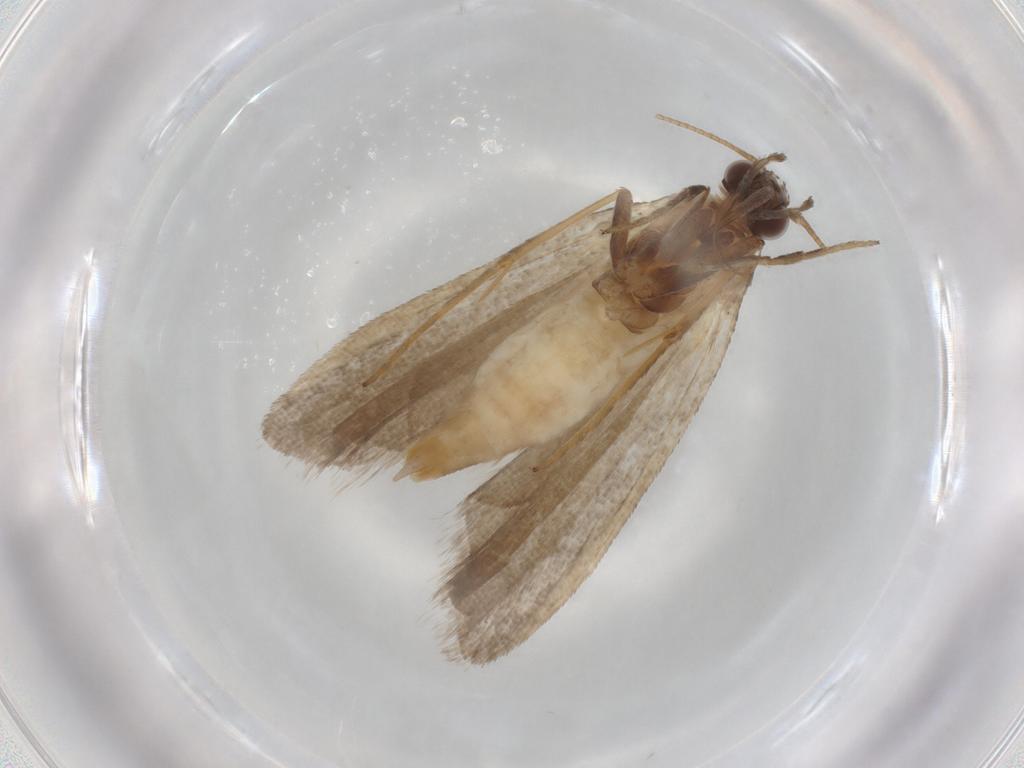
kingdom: Animalia
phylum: Arthropoda
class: Insecta
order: Lepidoptera
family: Noctuidae
